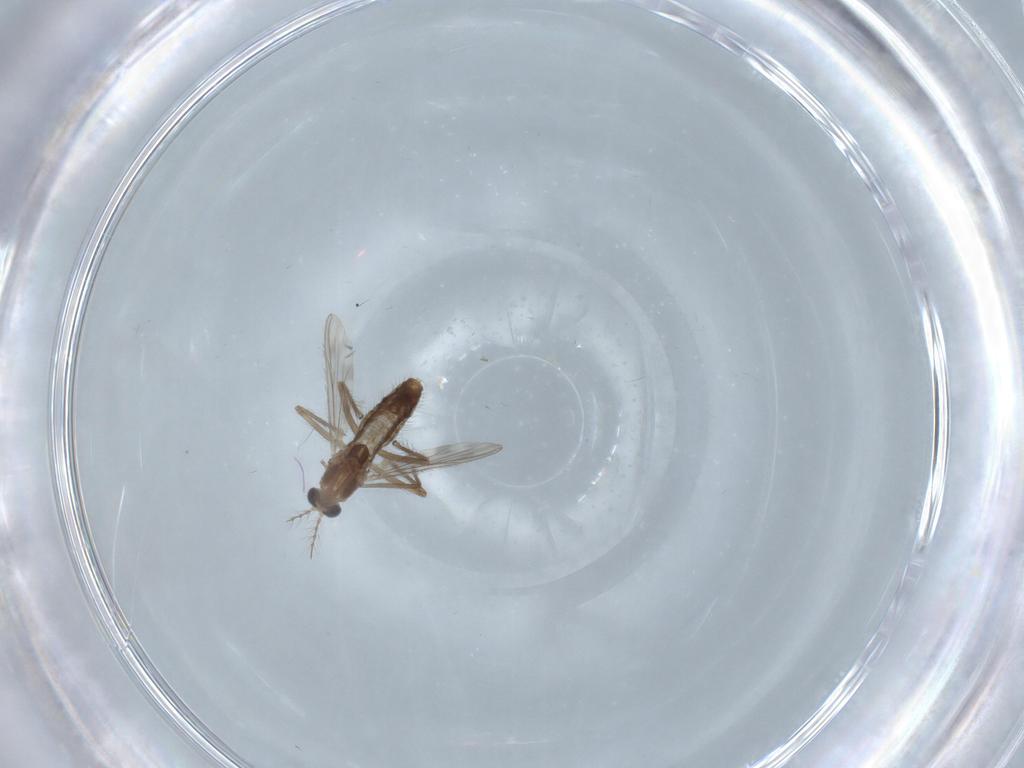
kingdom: Animalia
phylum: Arthropoda
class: Insecta
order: Diptera
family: Chironomidae
